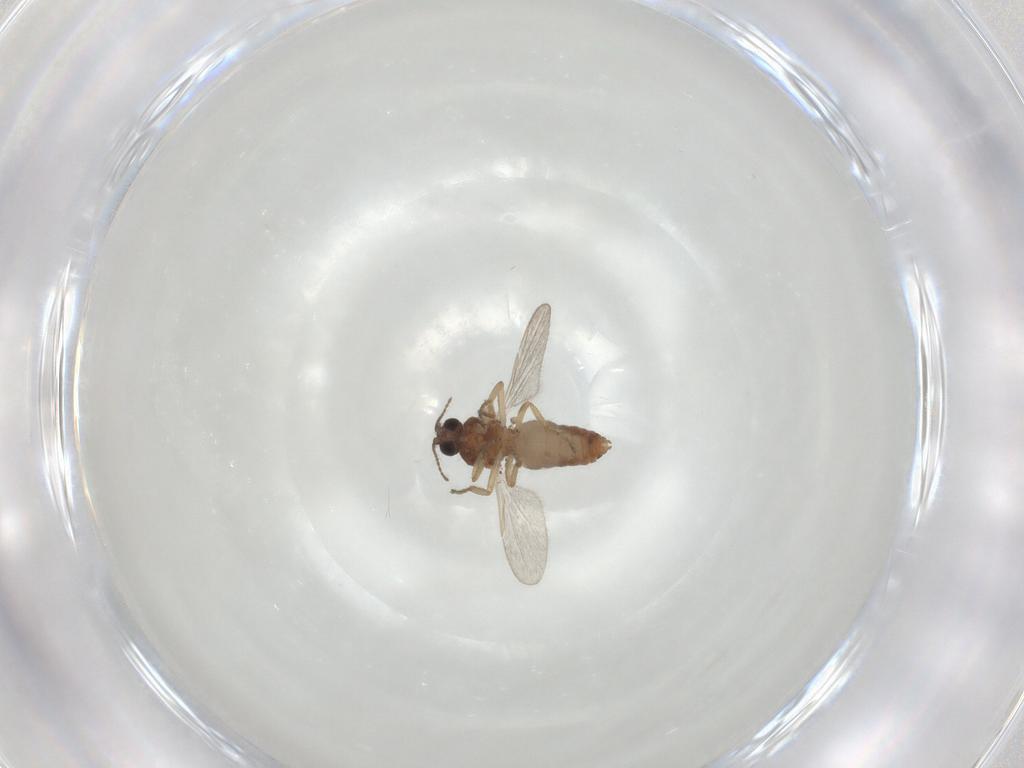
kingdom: Animalia
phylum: Arthropoda
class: Insecta
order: Diptera
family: Ceratopogonidae
